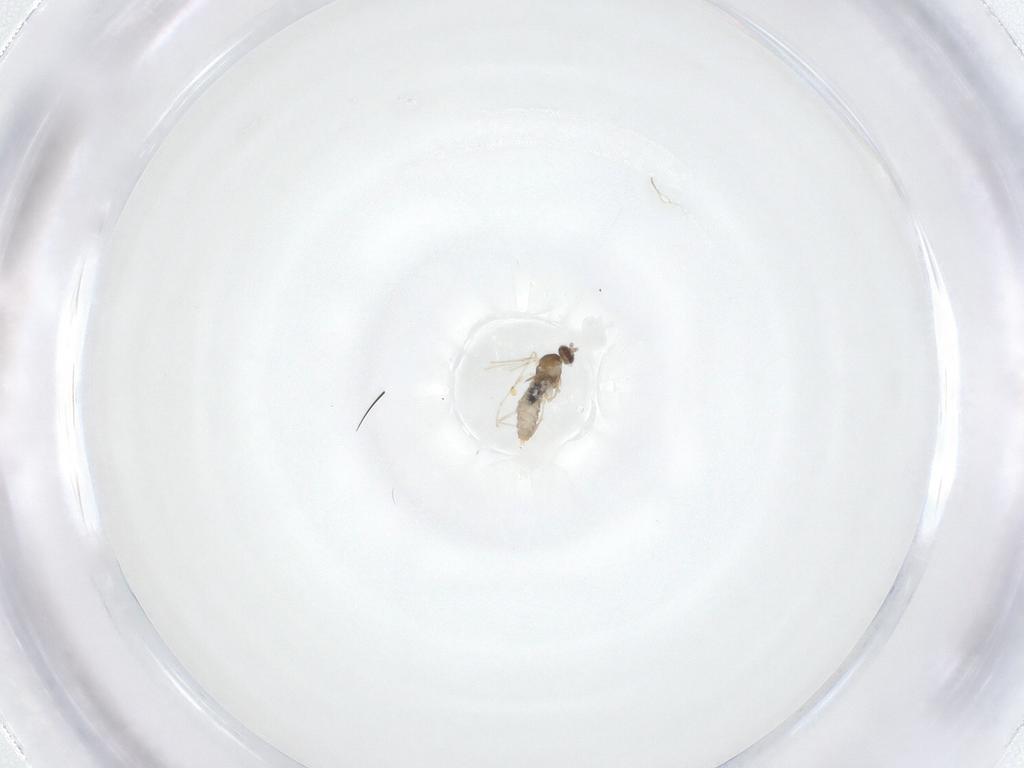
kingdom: Animalia
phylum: Arthropoda
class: Insecta
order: Diptera
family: Cecidomyiidae
